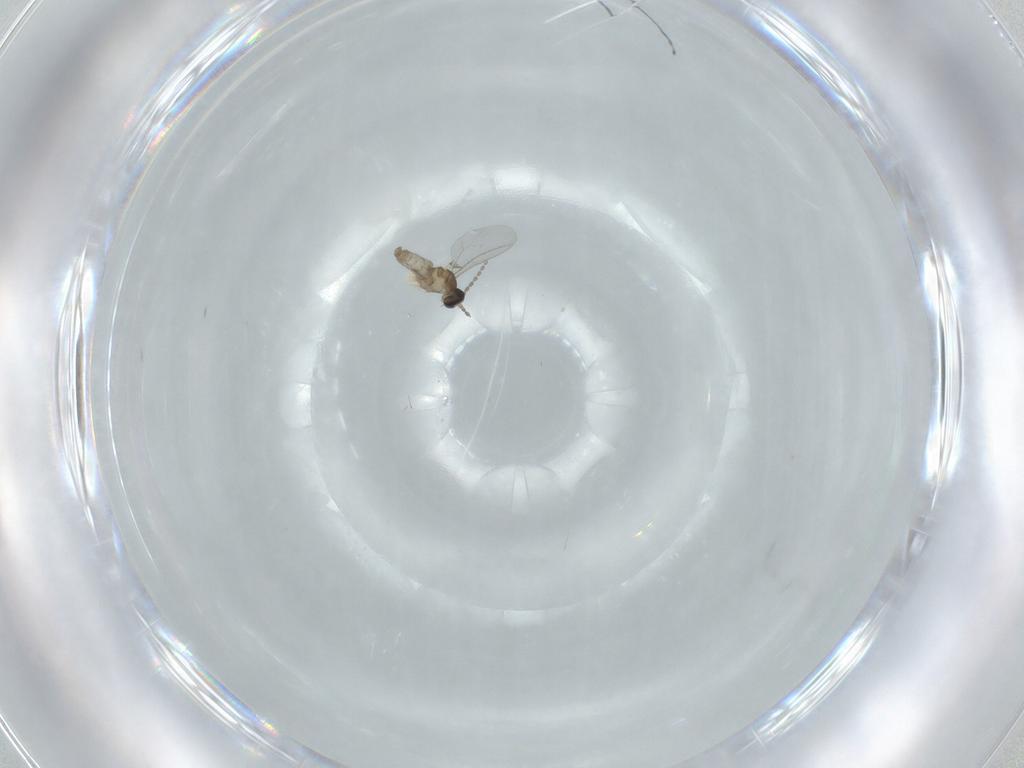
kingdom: Animalia
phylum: Arthropoda
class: Insecta
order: Diptera
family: Cecidomyiidae
